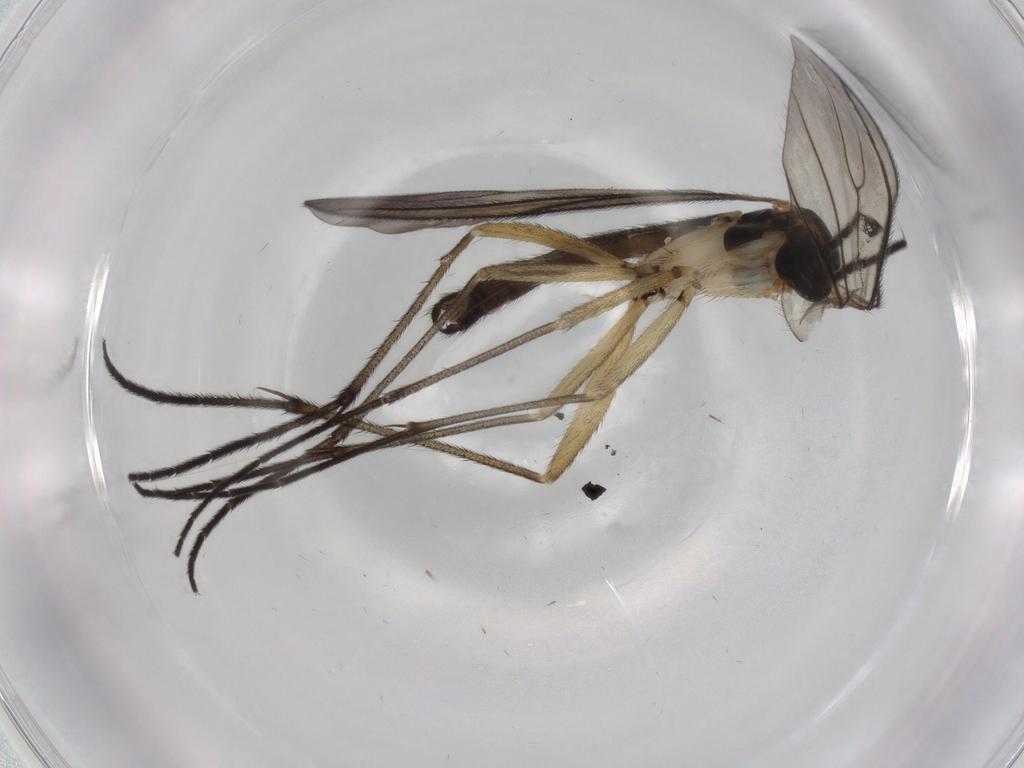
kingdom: Animalia
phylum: Arthropoda
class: Insecta
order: Diptera
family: Sciaridae
